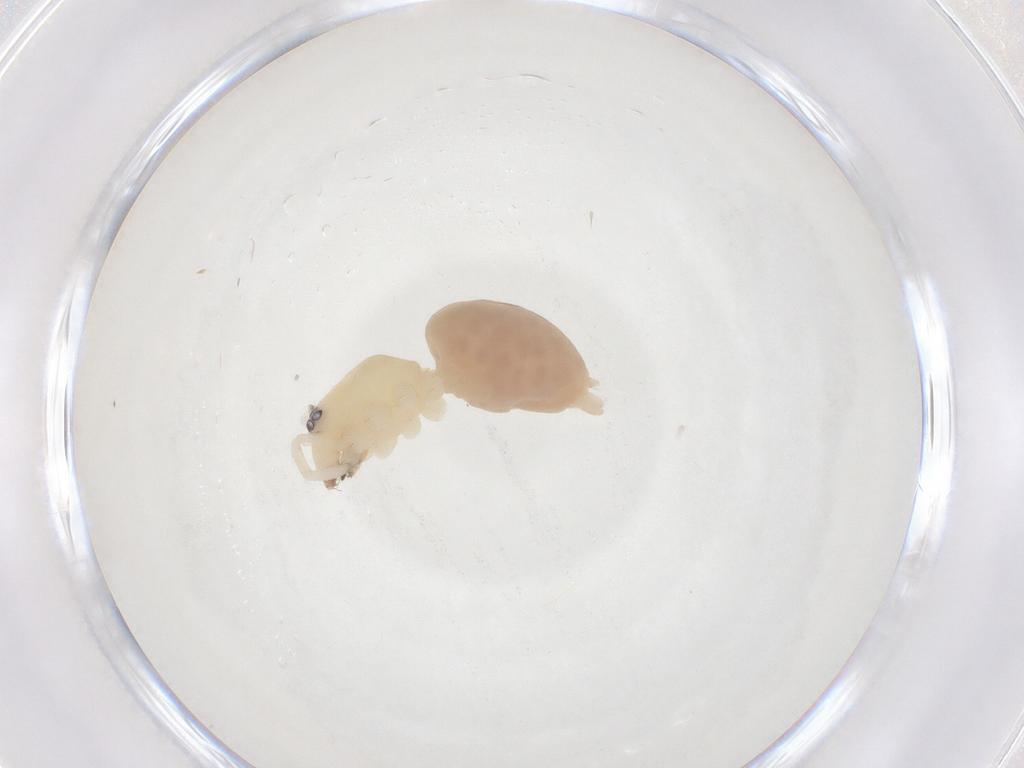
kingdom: Animalia
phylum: Arthropoda
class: Arachnida
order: Araneae
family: Anyphaenidae
